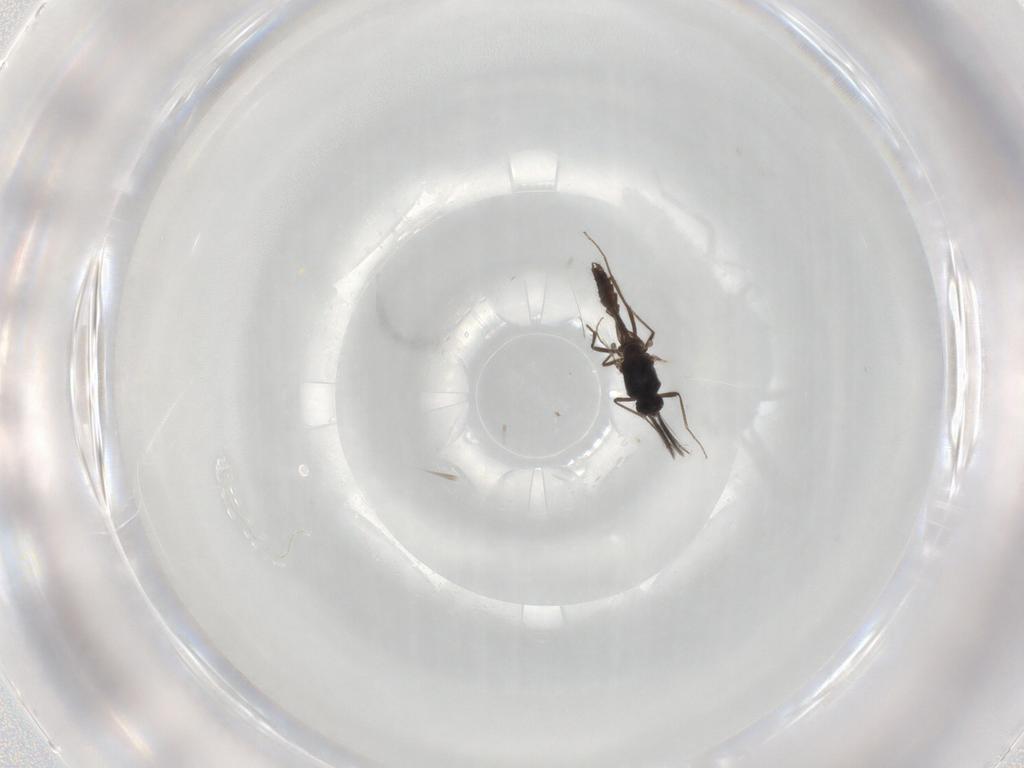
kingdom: Animalia
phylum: Arthropoda
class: Insecta
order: Diptera
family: Ceratopogonidae
